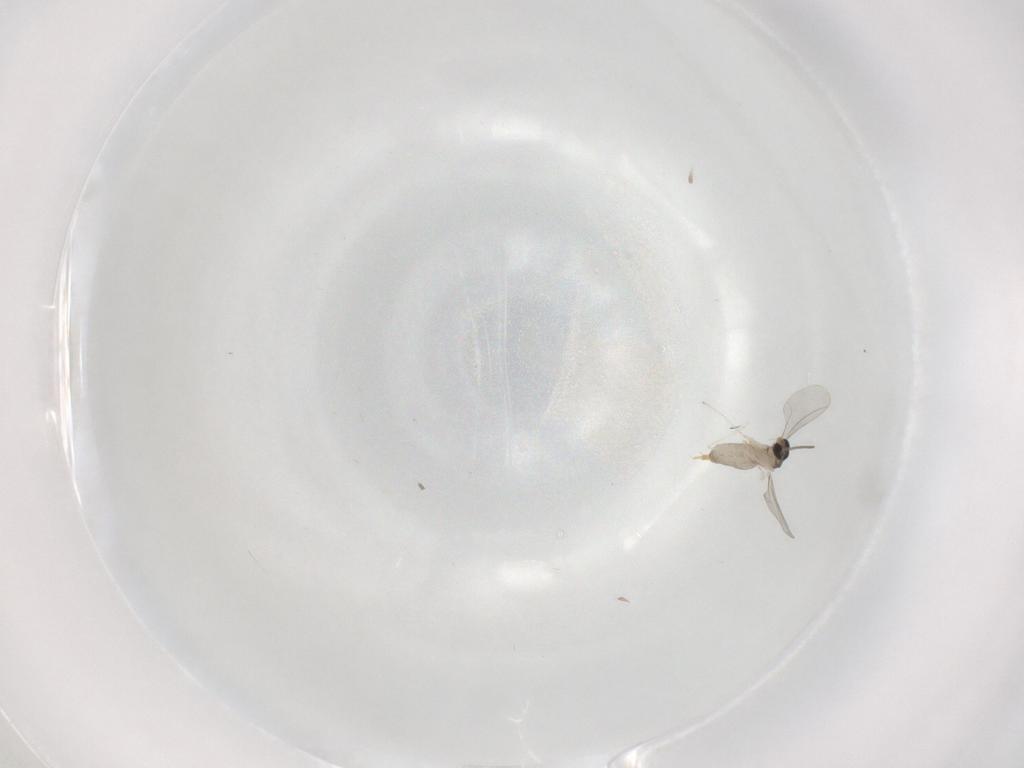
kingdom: Animalia
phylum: Arthropoda
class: Insecta
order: Diptera
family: Cecidomyiidae
